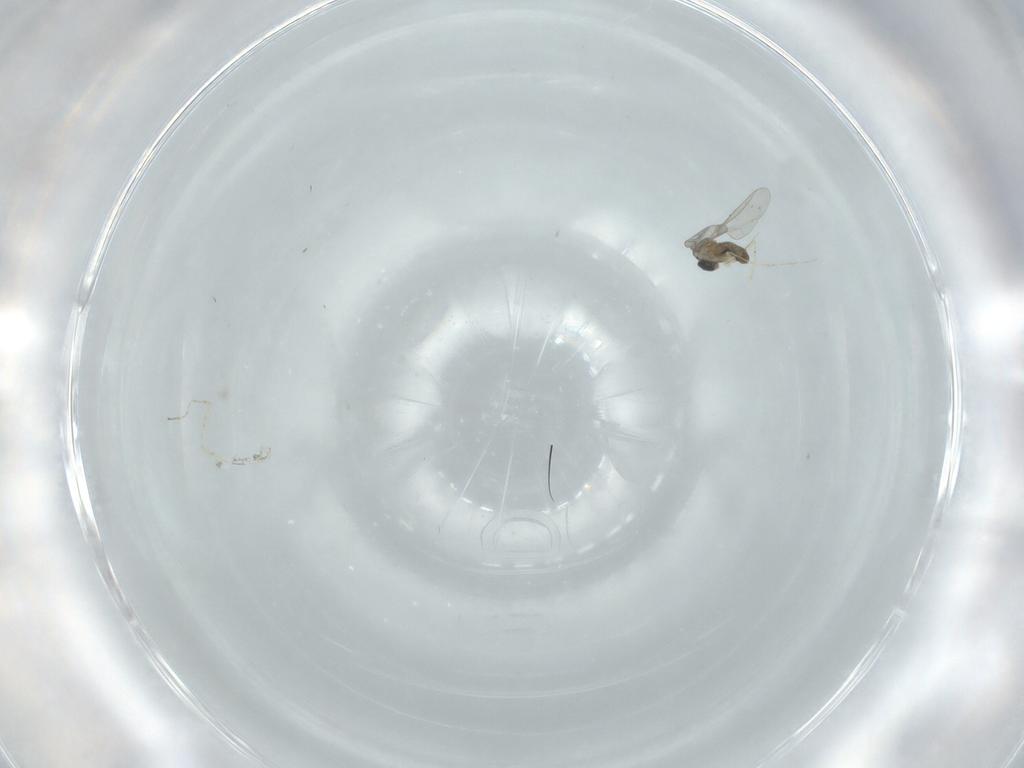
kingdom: Animalia
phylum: Arthropoda
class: Insecta
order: Diptera
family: Cecidomyiidae
